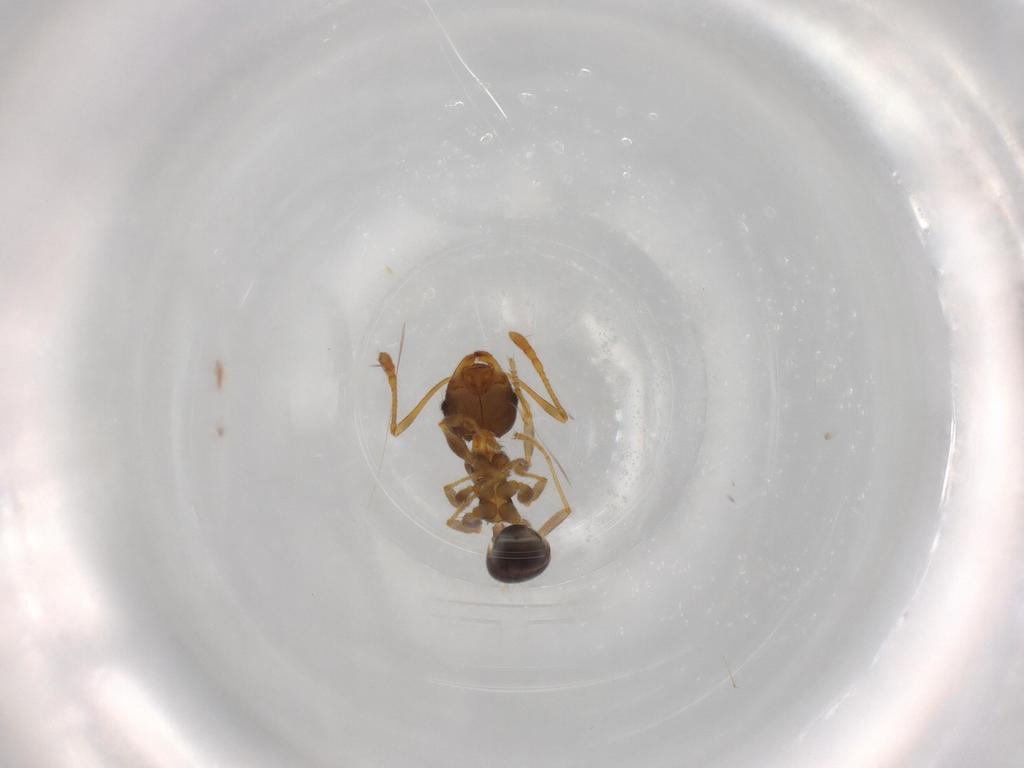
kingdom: Animalia
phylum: Arthropoda
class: Insecta
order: Hymenoptera
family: Formicidae
